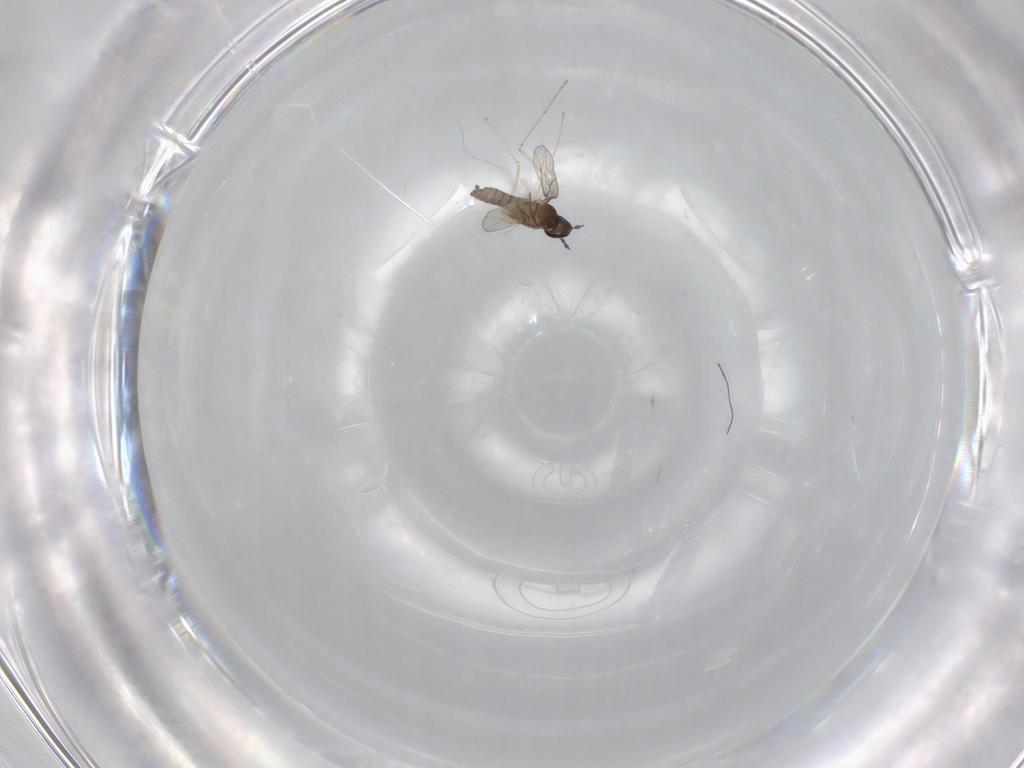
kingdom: Animalia
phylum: Arthropoda
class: Insecta
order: Diptera
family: Cecidomyiidae
